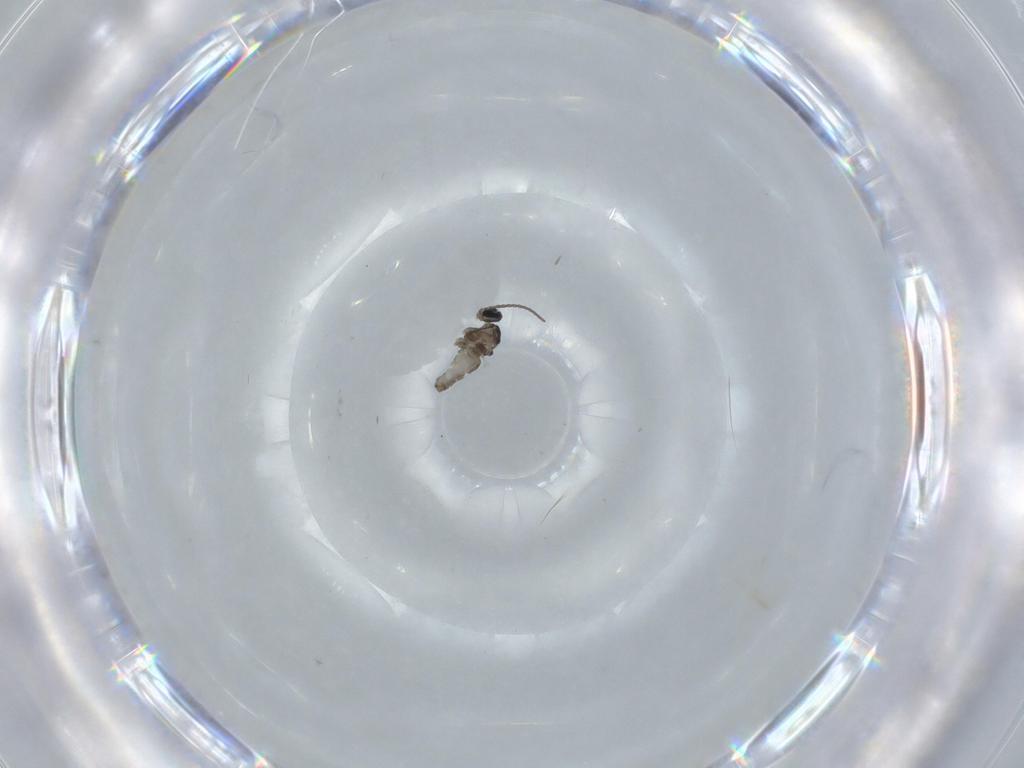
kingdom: Animalia
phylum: Arthropoda
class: Insecta
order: Diptera
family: Cecidomyiidae
